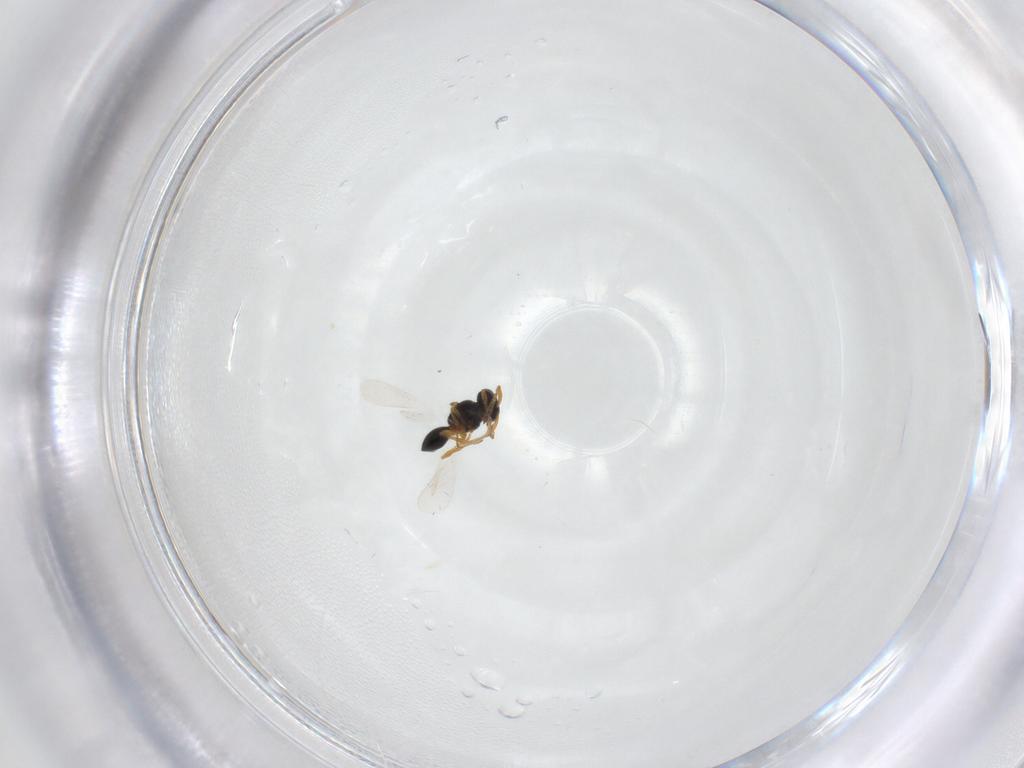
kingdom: Animalia
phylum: Arthropoda
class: Insecta
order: Hymenoptera
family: Platygastridae
